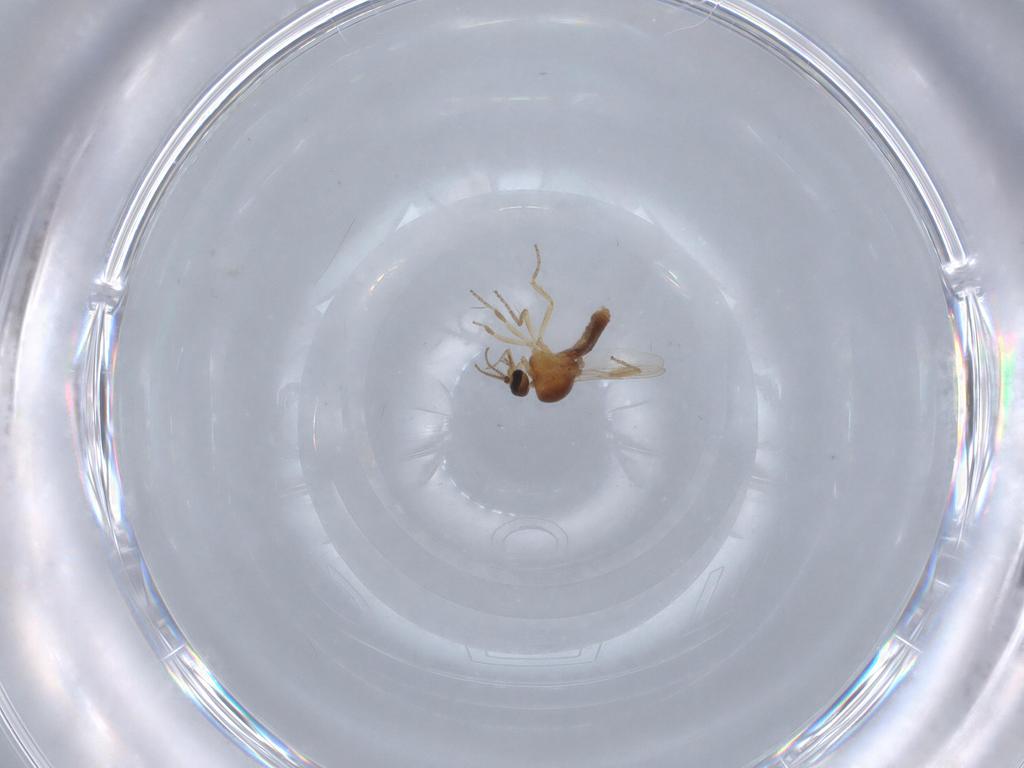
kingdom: Animalia
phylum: Arthropoda
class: Insecta
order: Diptera
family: Ceratopogonidae
